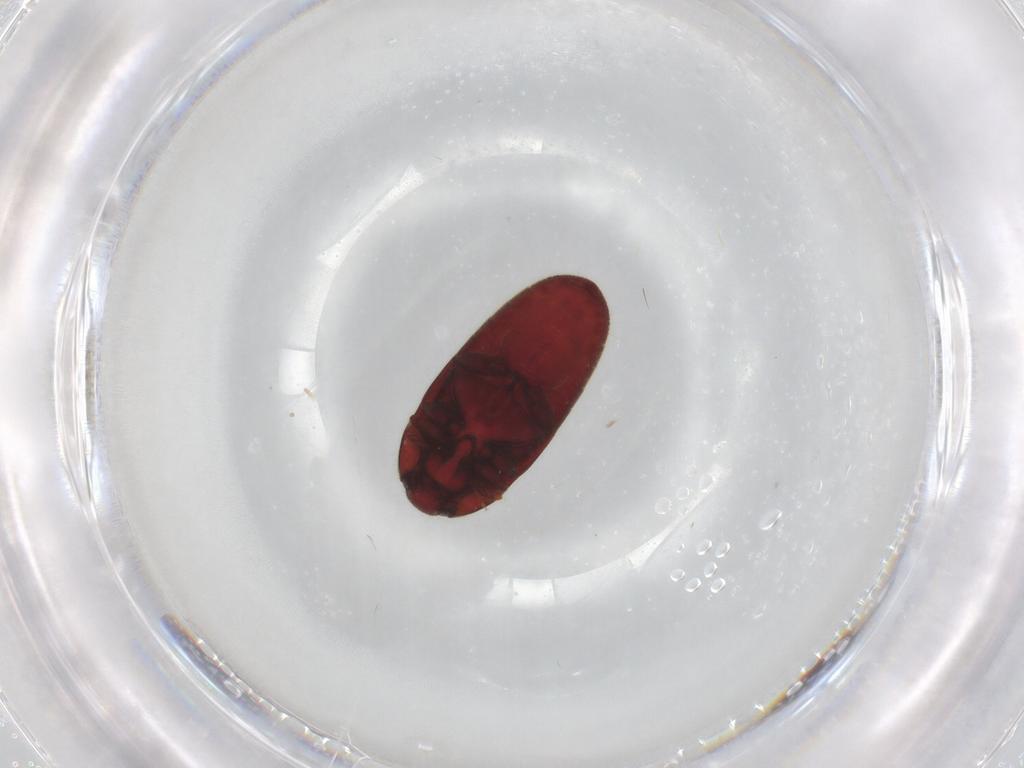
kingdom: Animalia
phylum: Arthropoda
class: Insecta
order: Coleoptera
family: Throscidae
